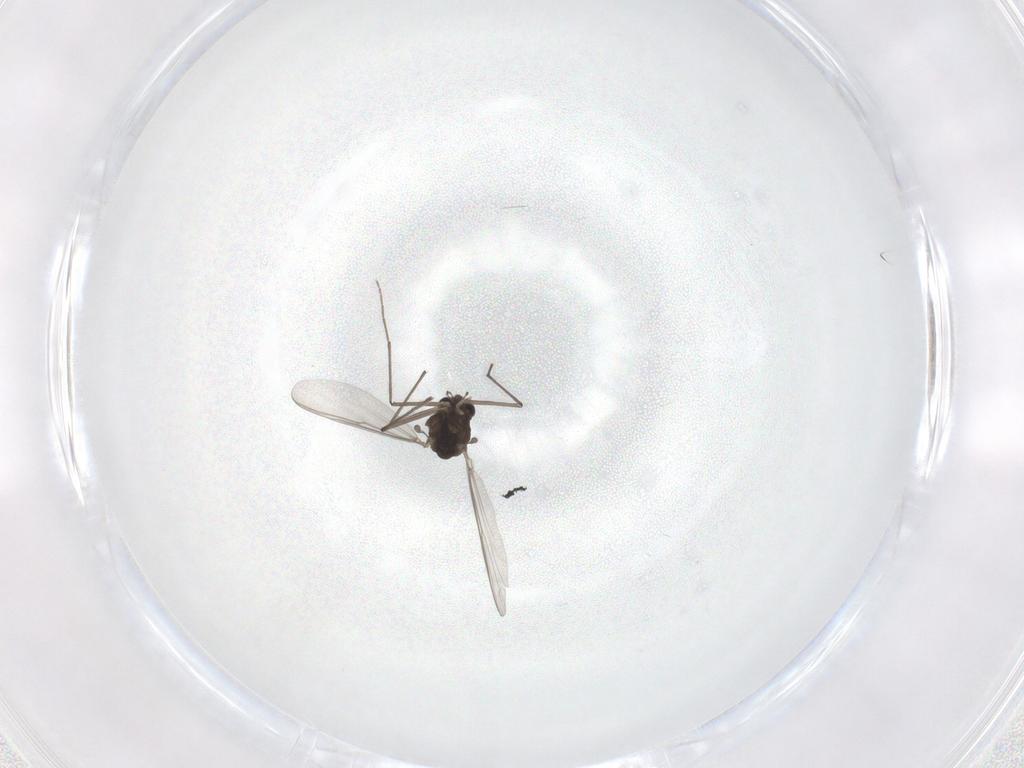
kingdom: Animalia
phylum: Arthropoda
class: Insecta
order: Diptera
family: Chironomidae
